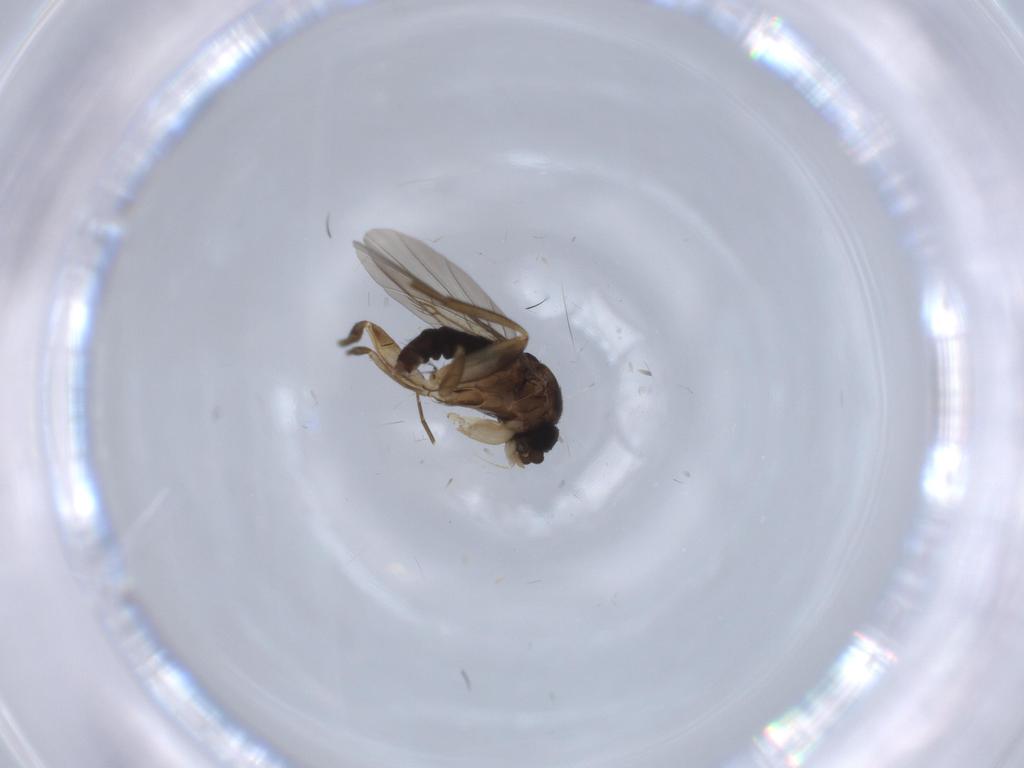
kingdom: Animalia
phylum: Arthropoda
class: Insecta
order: Diptera
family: Phoridae
